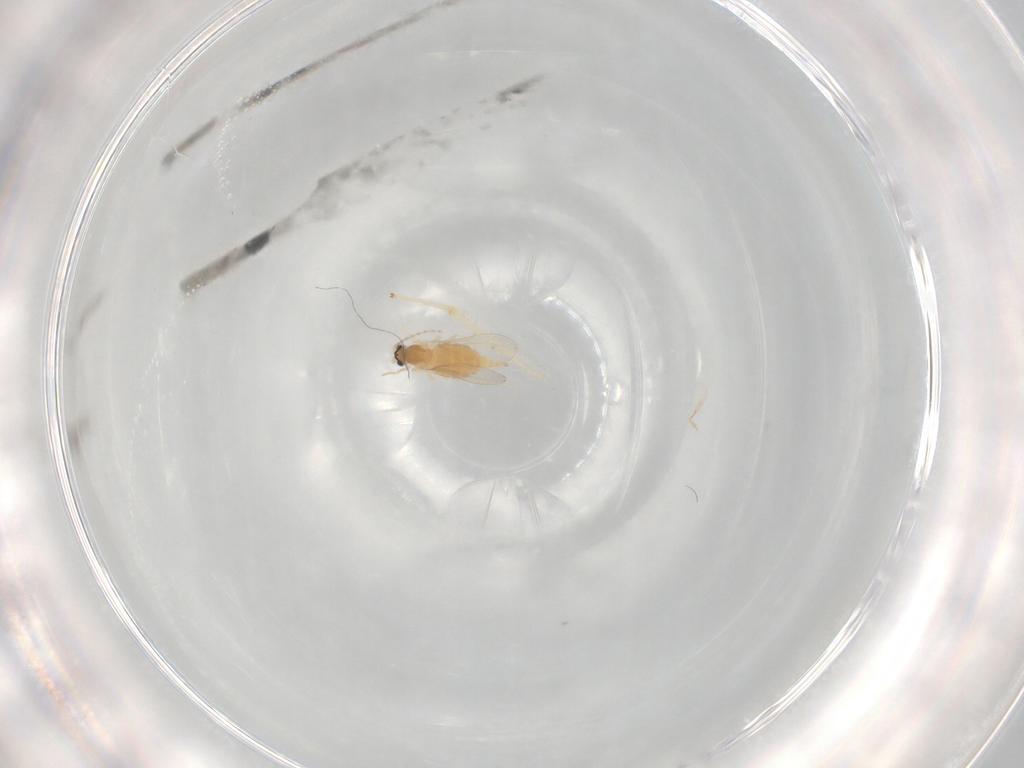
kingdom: Animalia
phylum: Arthropoda
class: Insecta
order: Diptera
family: Cecidomyiidae
